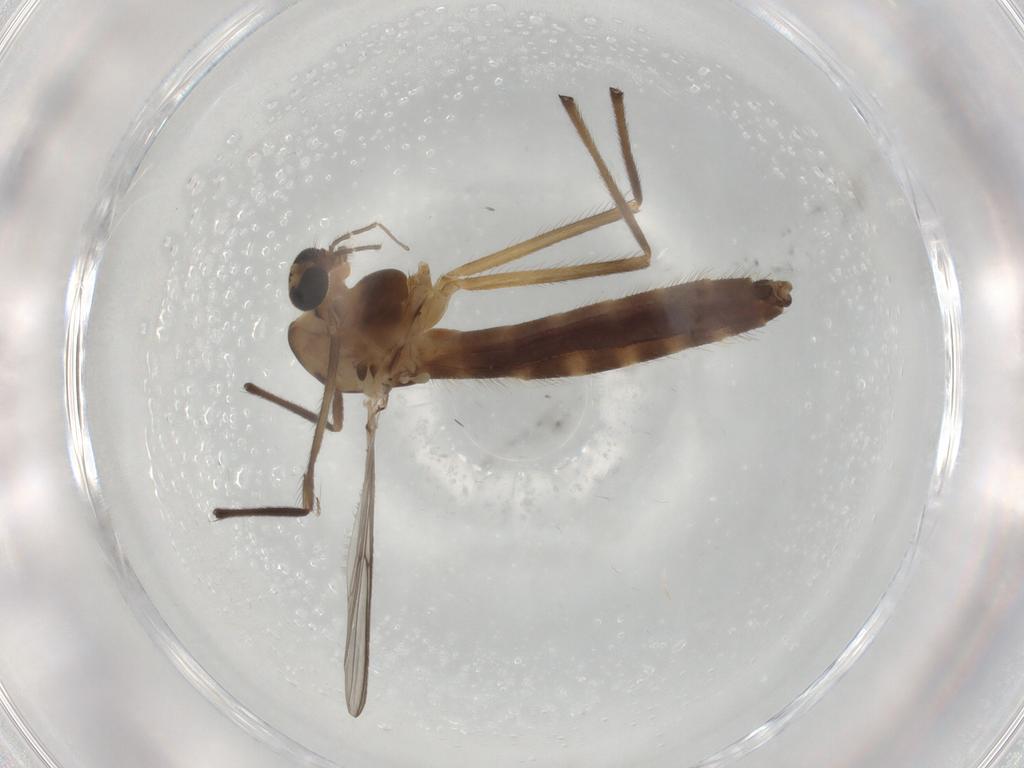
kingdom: Animalia
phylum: Arthropoda
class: Insecta
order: Diptera
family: Chironomidae
